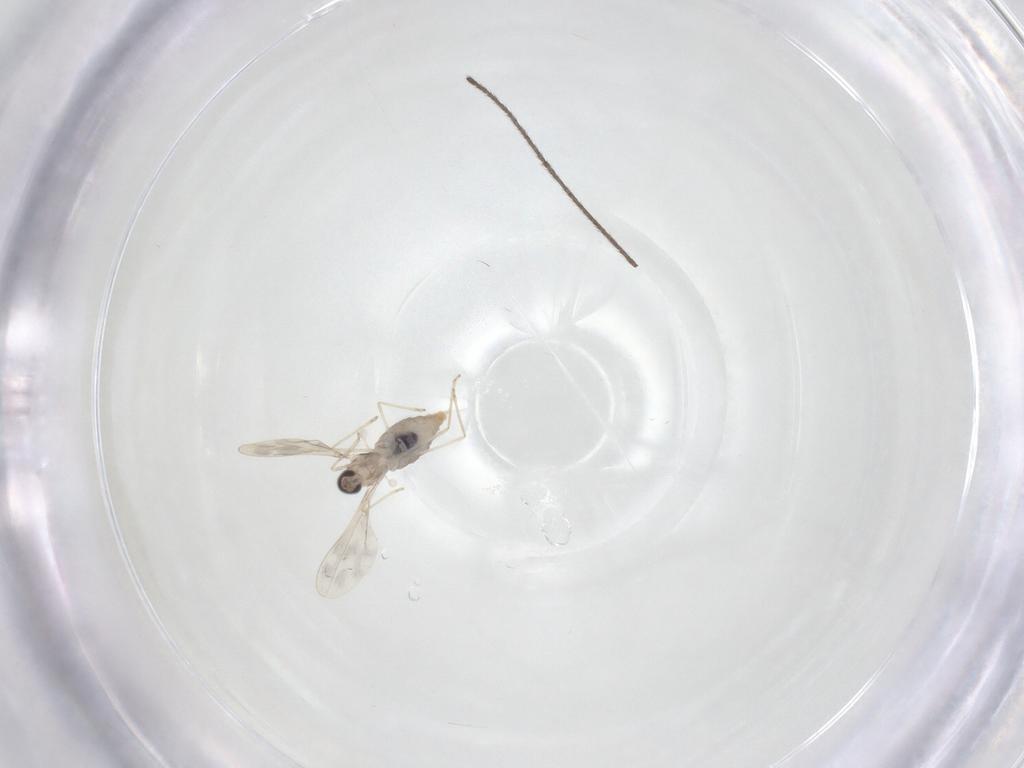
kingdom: Animalia
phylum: Arthropoda
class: Insecta
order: Diptera
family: Cecidomyiidae
